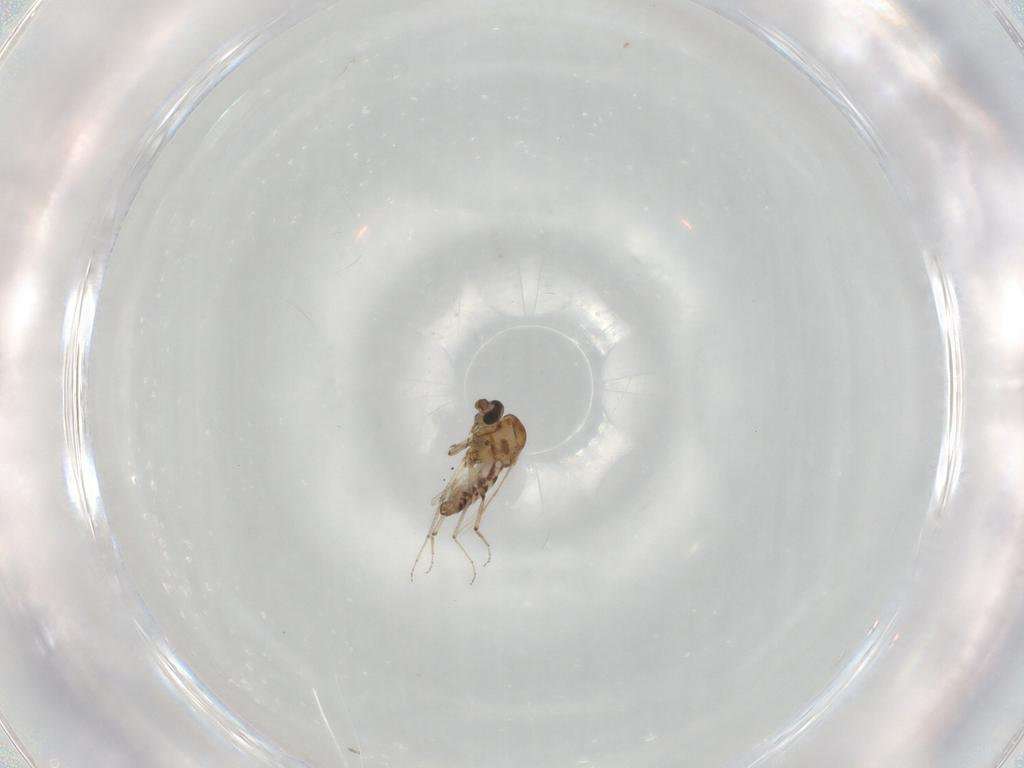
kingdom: Animalia
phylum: Arthropoda
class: Insecta
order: Diptera
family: Ceratopogonidae
